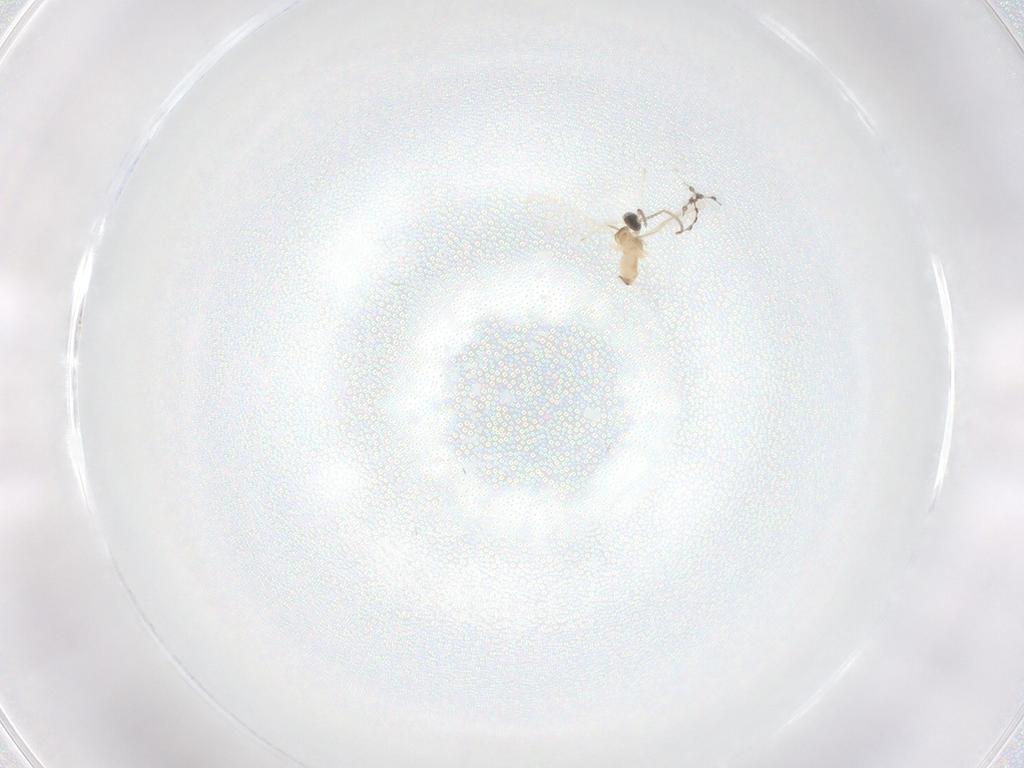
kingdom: Animalia
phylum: Arthropoda
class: Insecta
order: Diptera
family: Cecidomyiidae
